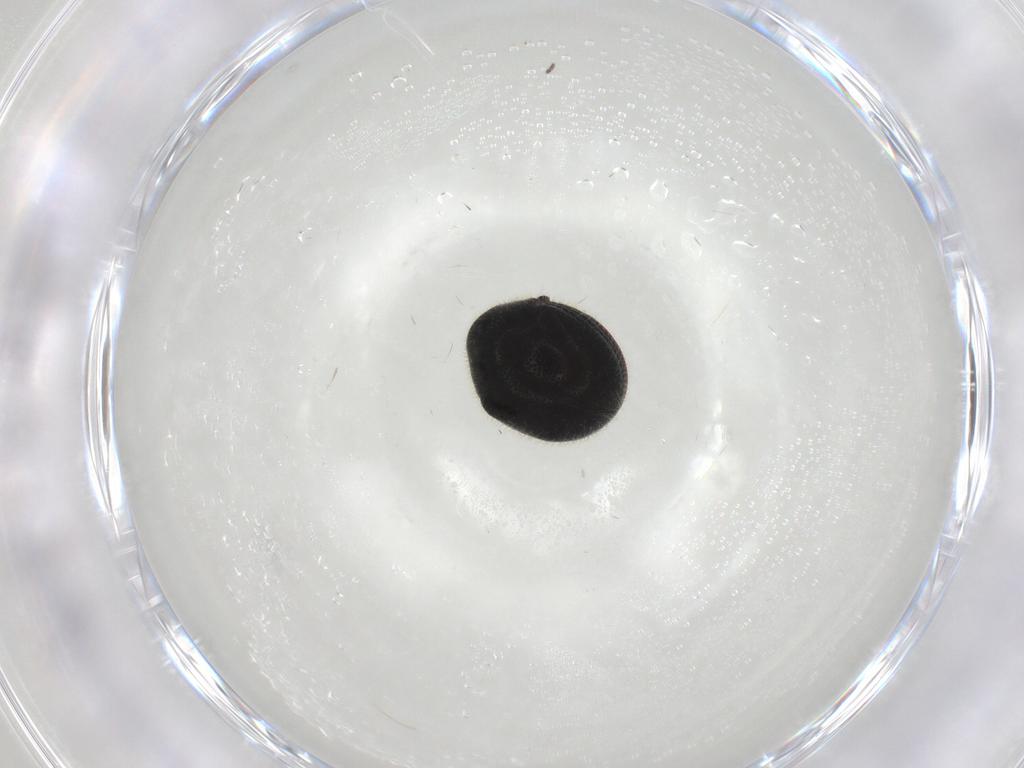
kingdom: Animalia
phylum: Arthropoda
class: Insecta
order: Coleoptera
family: Ptinidae
